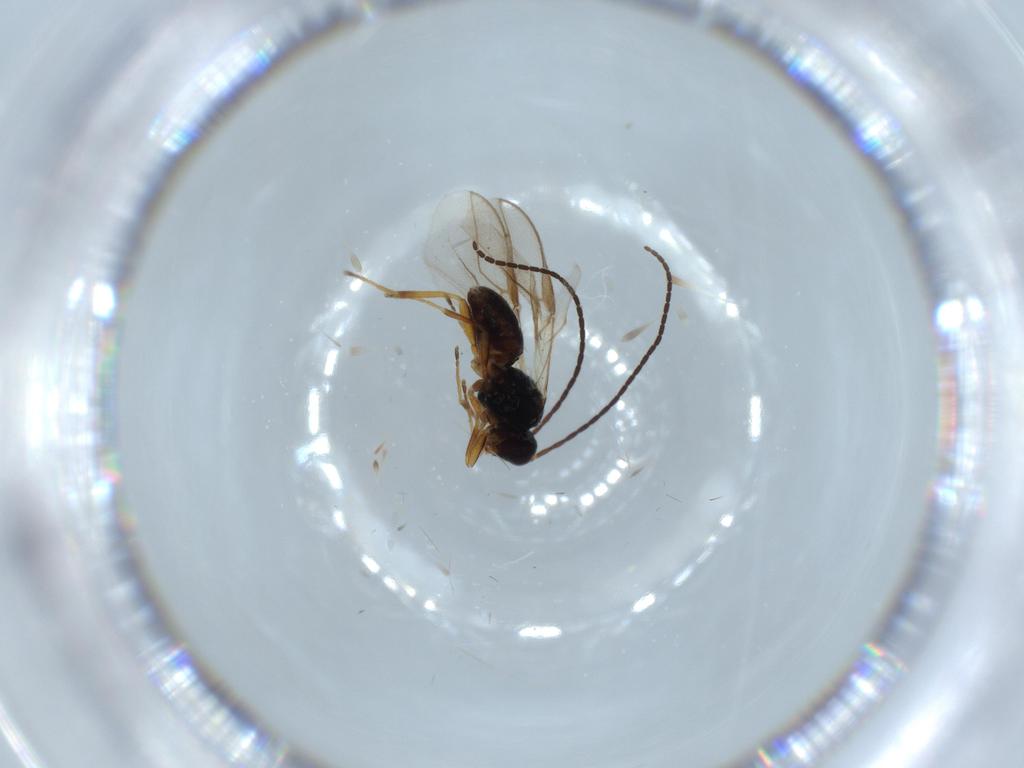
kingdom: Animalia
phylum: Arthropoda
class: Insecta
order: Hymenoptera
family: Braconidae
